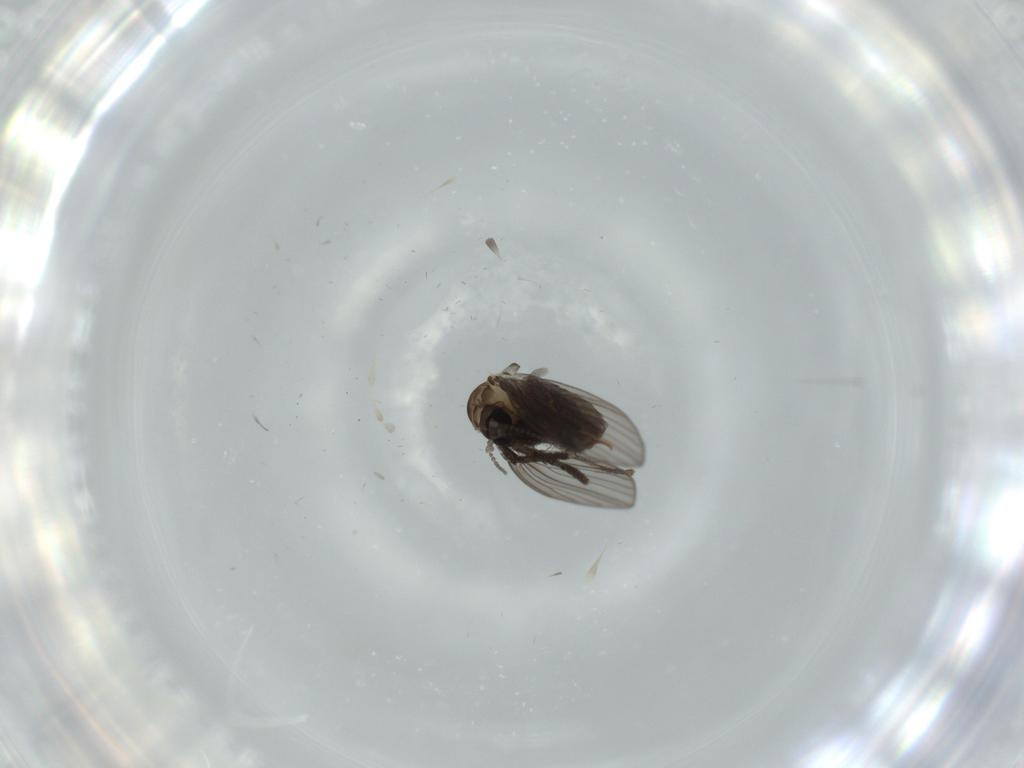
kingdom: Animalia
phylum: Arthropoda
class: Insecta
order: Diptera
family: Psychodidae
